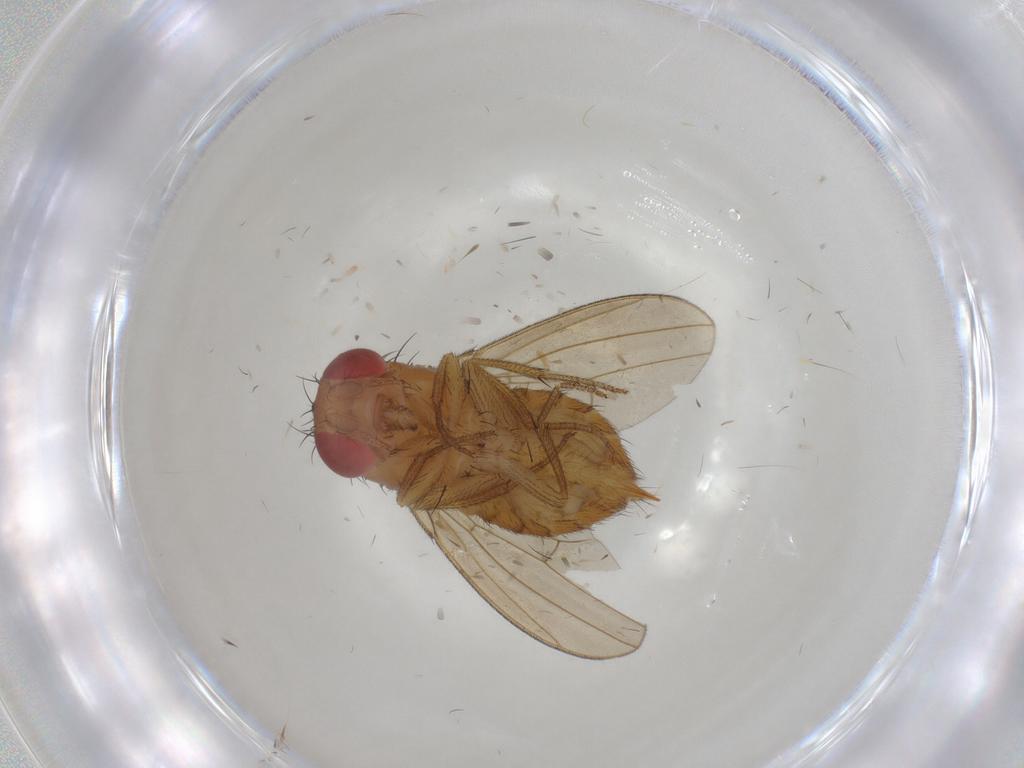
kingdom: Animalia
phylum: Arthropoda
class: Insecta
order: Diptera
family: Drosophilidae
